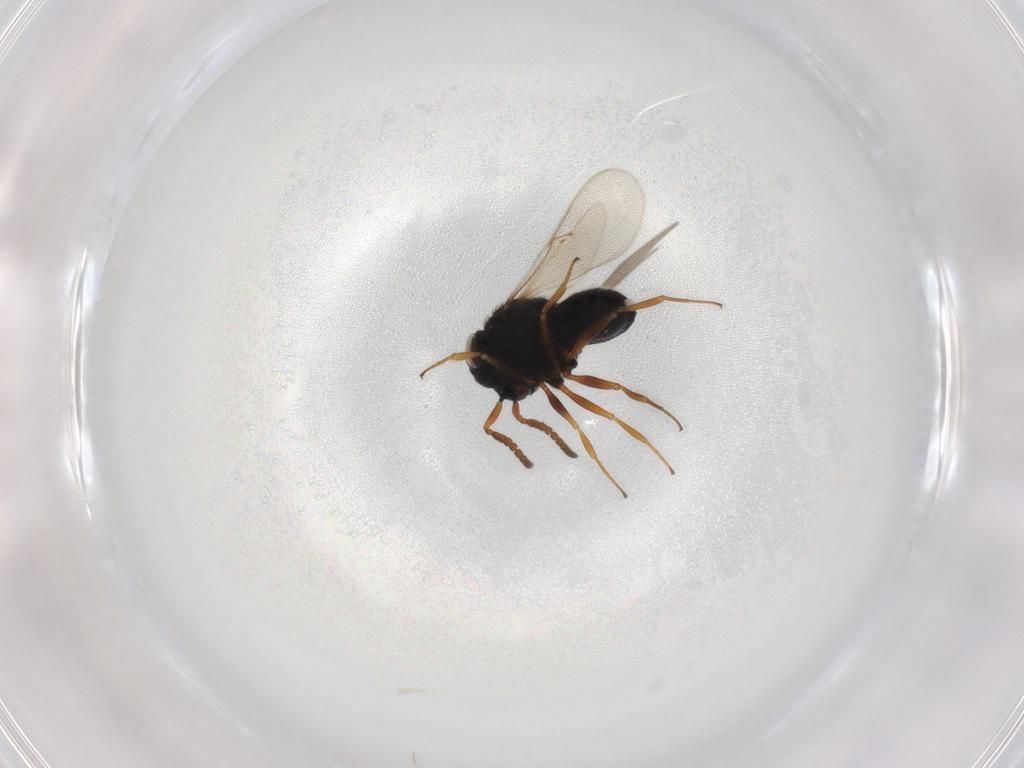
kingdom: Animalia
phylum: Arthropoda
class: Insecta
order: Hymenoptera
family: Scelionidae
